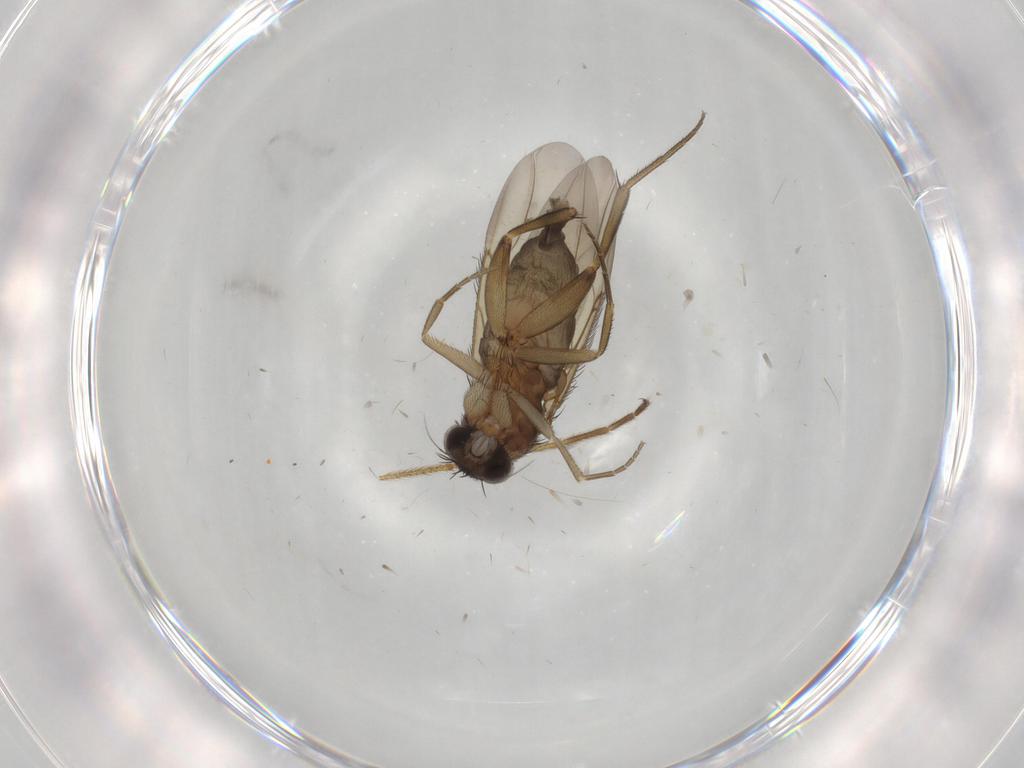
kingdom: Animalia
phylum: Arthropoda
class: Insecta
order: Diptera
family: Phoridae
